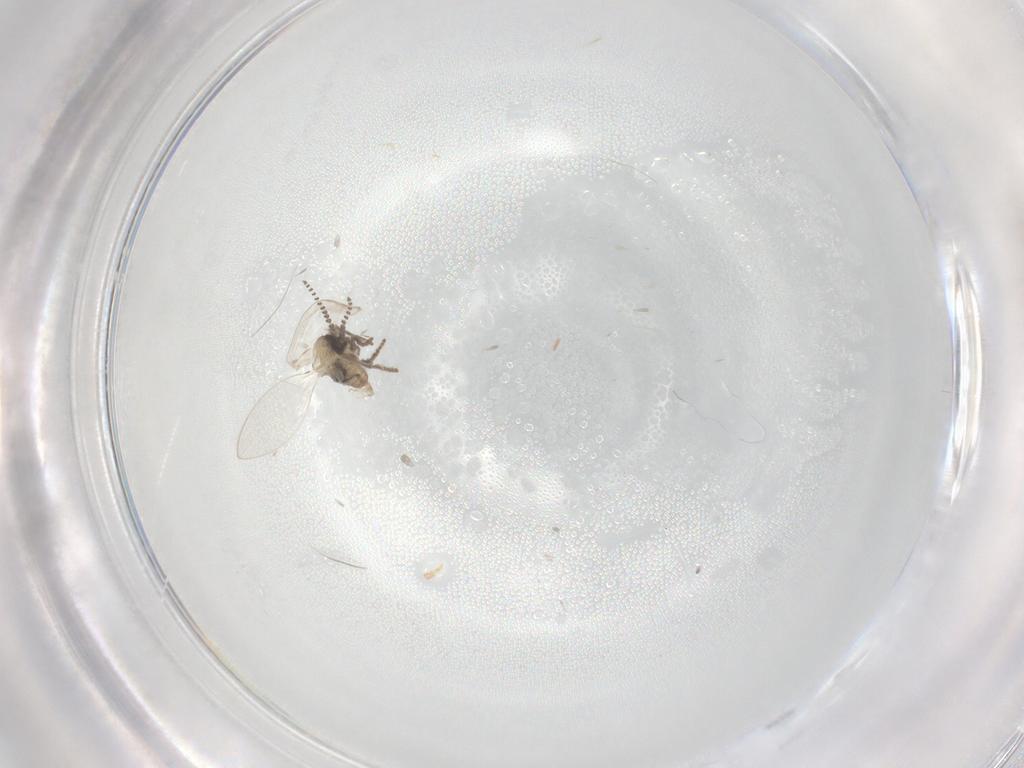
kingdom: Animalia
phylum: Arthropoda
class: Insecta
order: Diptera
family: Psychodidae
